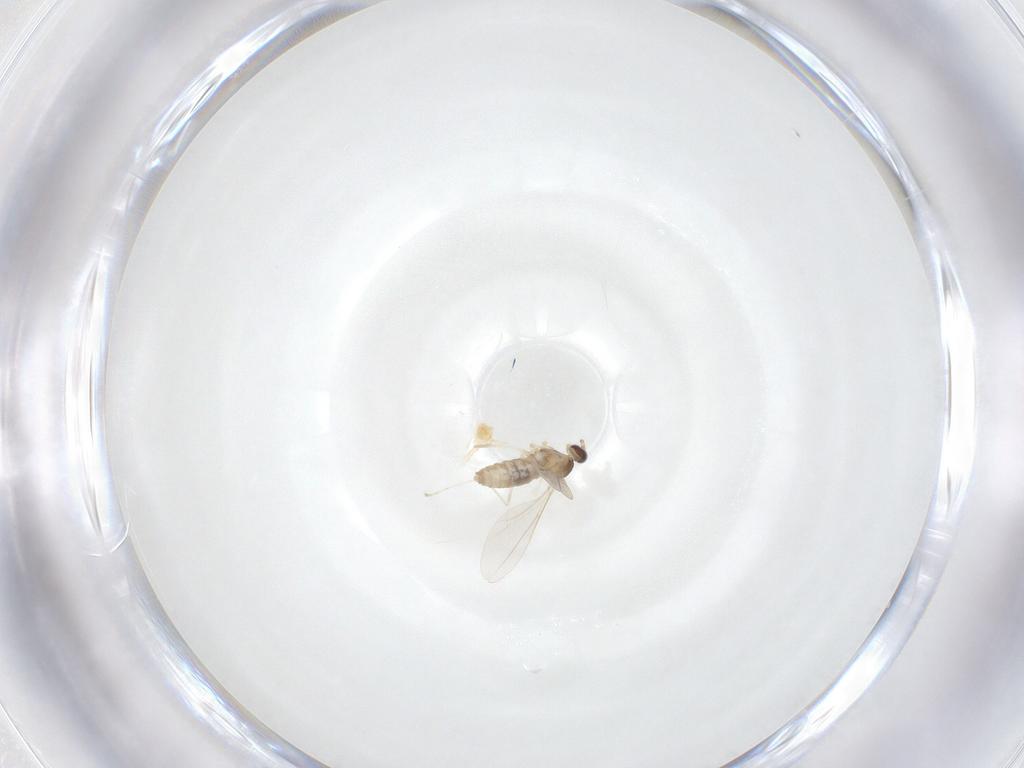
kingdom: Animalia
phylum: Arthropoda
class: Insecta
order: Diptera
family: Cecidomyiidae
